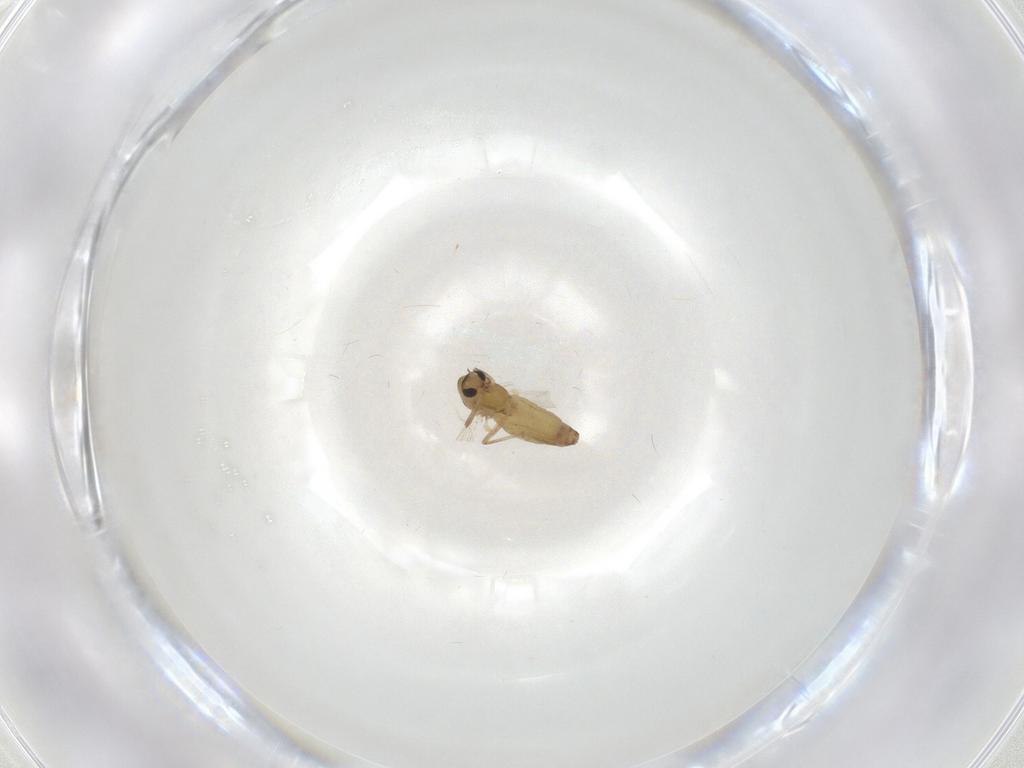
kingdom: Animalia
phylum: Arthropoda
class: Insecta
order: Diptera
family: Chironomidae
